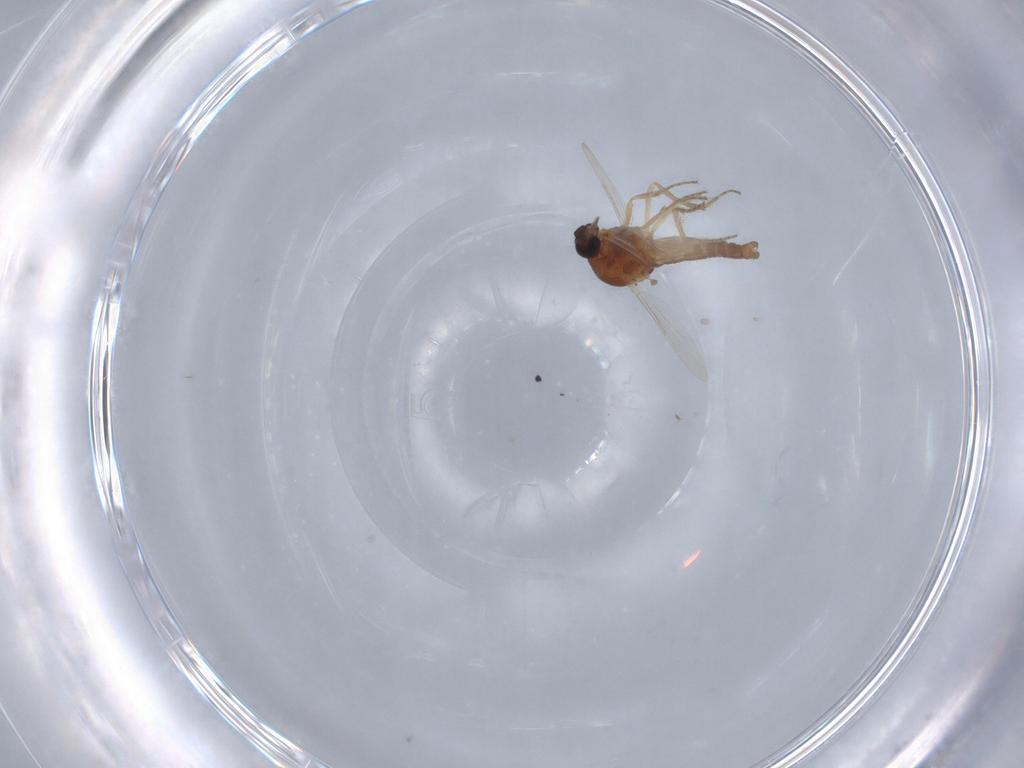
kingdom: Animalia
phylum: Arthropoda
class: Insecta
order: Diptera
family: Ceratopogonidae
